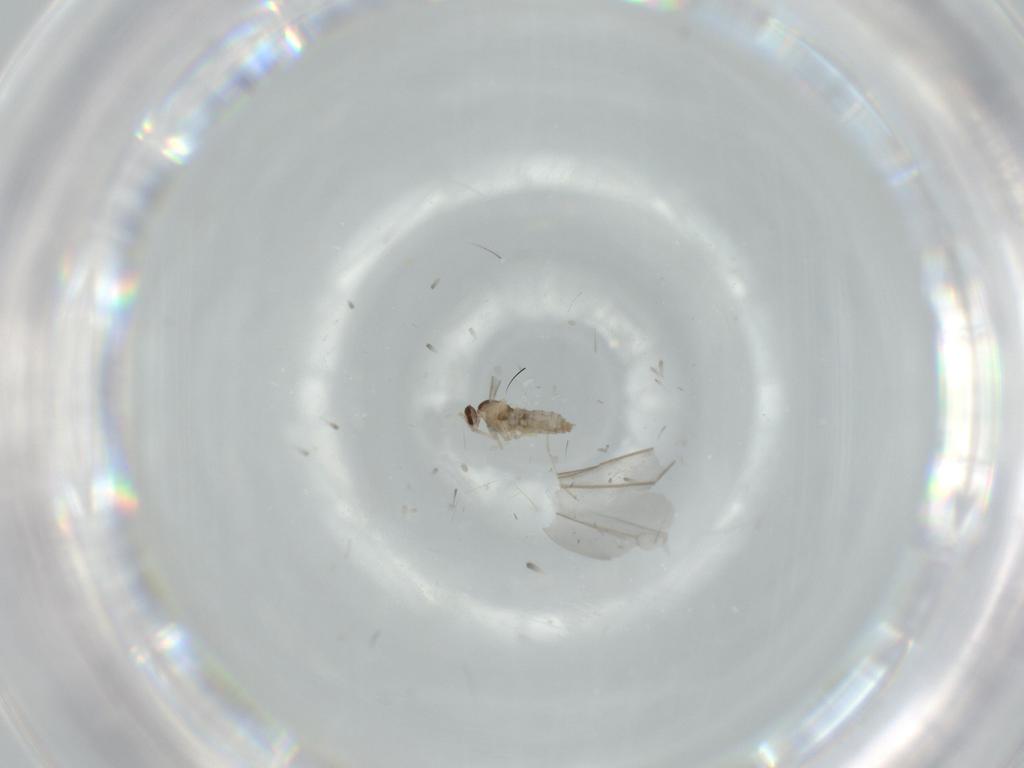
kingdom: Animalia
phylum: Arthropoda
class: Insecta
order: Diptera
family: Cecidomyiidae
